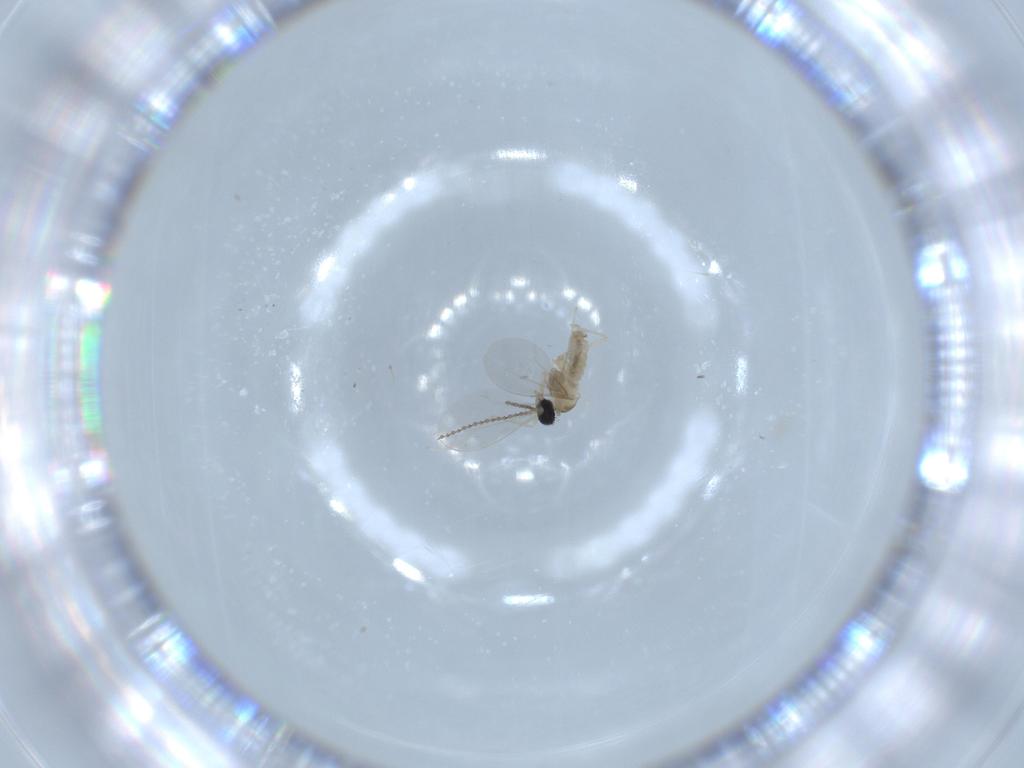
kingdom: Animalia
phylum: Arthropoda
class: Insecta
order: Diptera
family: Cecidomyiidae
